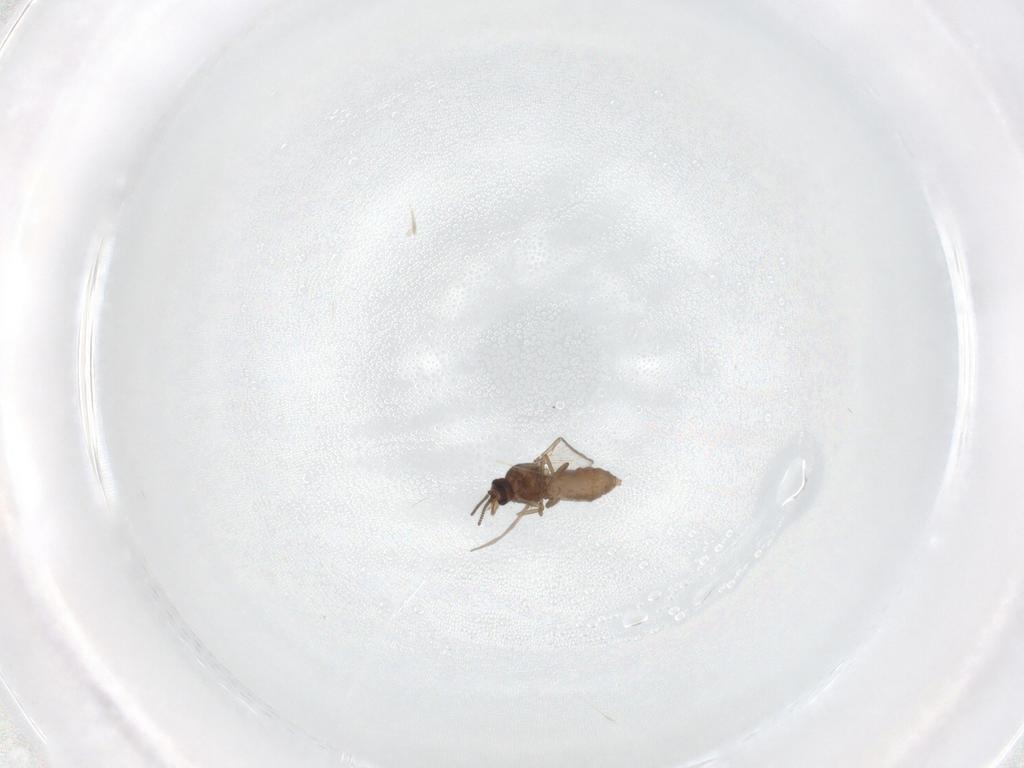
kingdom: Animalia
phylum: Arthropoda
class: Insecta
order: Diptera
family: Ceratopogonidae
